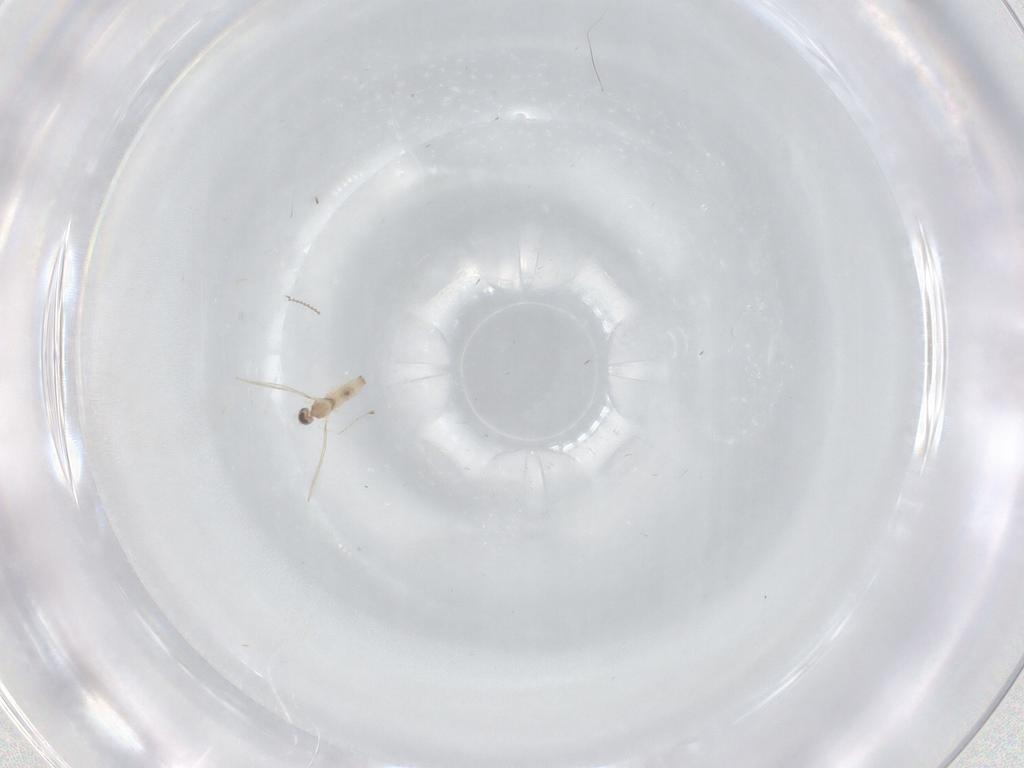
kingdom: Animalia
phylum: Arthropoda
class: Insecta
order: Diptera
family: Cecidomyiidae
